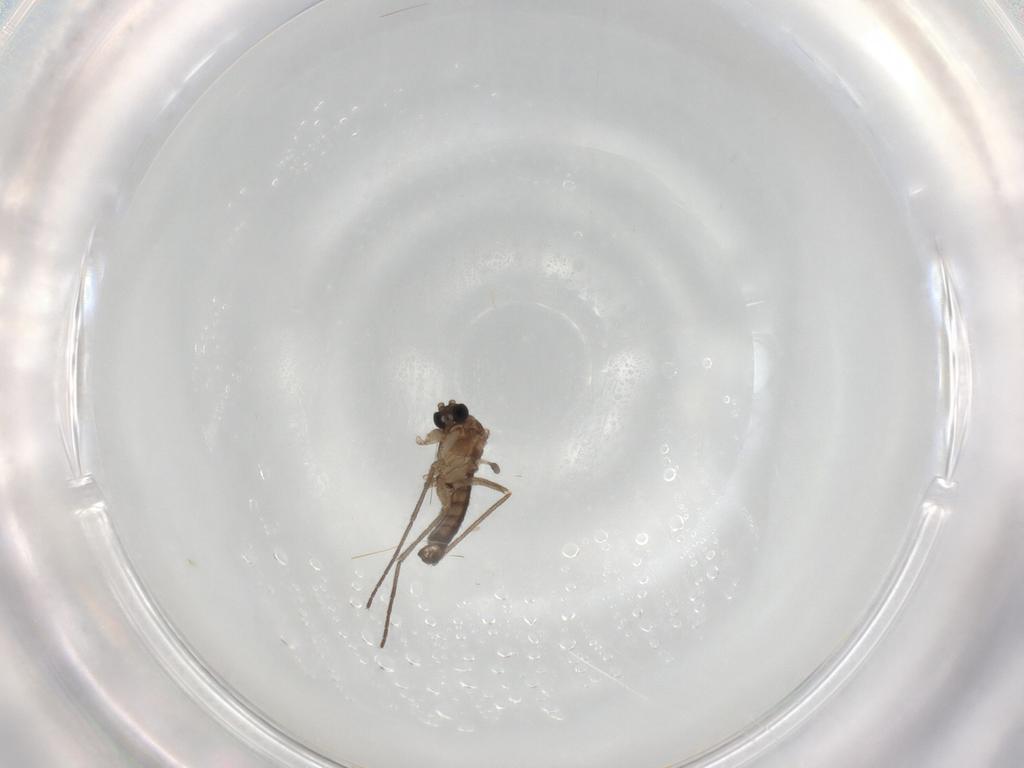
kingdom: Animalia
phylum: Arthropoda
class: Insecta
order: Diptera
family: Sciaridae
